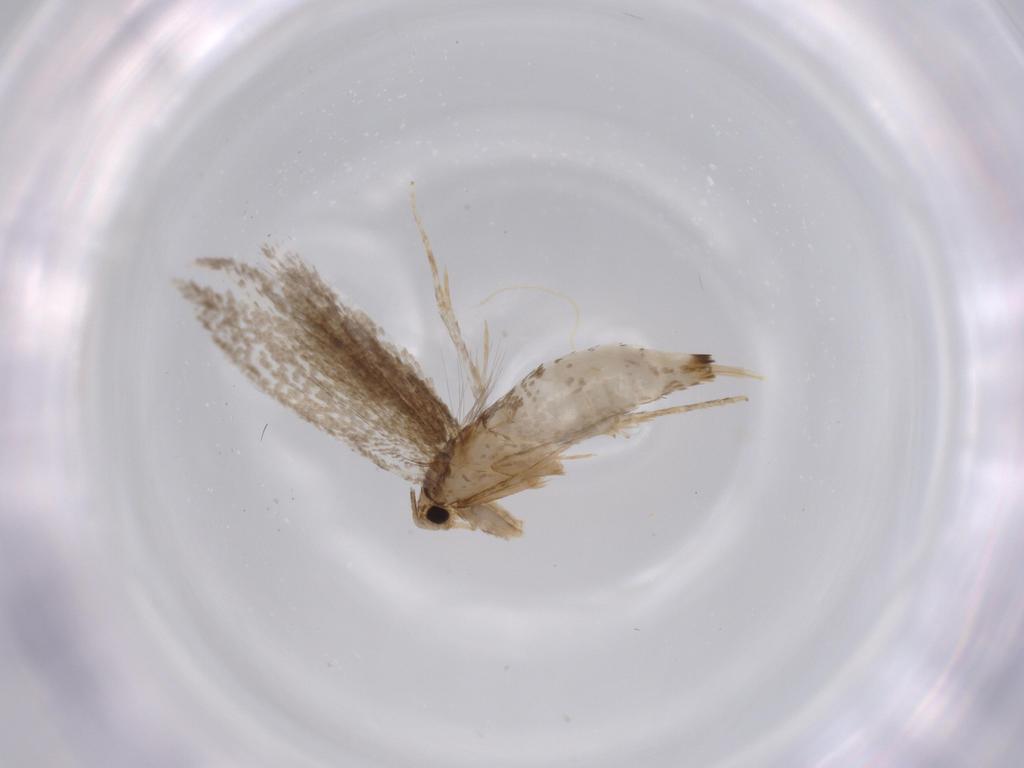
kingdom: Animalia
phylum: Arthropoda
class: Insecta
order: Lepidoptera
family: Tineidae
